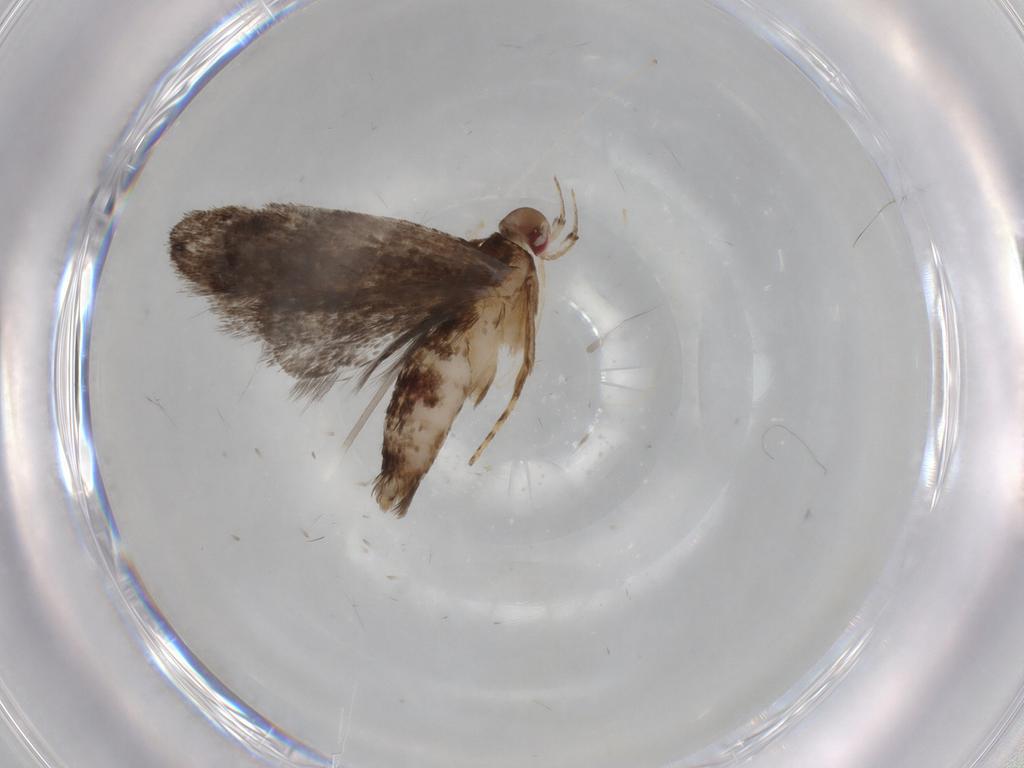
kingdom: Animalia
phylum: Arthropoda
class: Insecta
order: Lepidoptera
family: Gelechiidae
